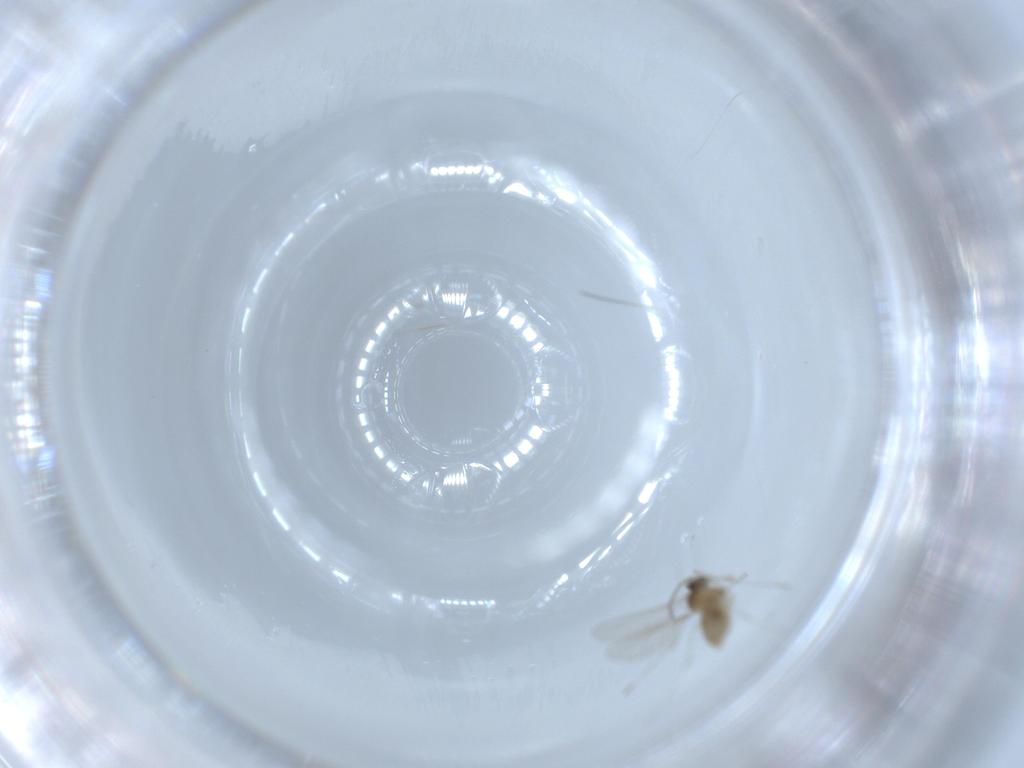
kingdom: Animalia
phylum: Arthropoda
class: Insecta
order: Diptera
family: Cecidomyiidae
